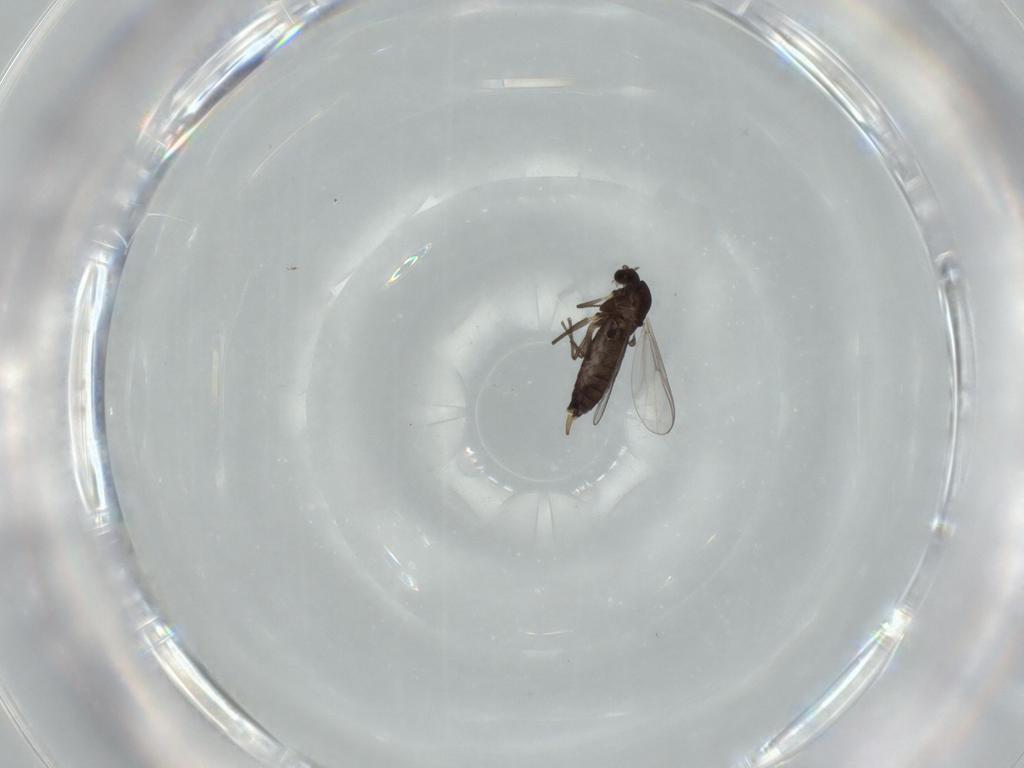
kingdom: Animalia
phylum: Arthropoda
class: Insecta
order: Diptera
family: Chironomidae
